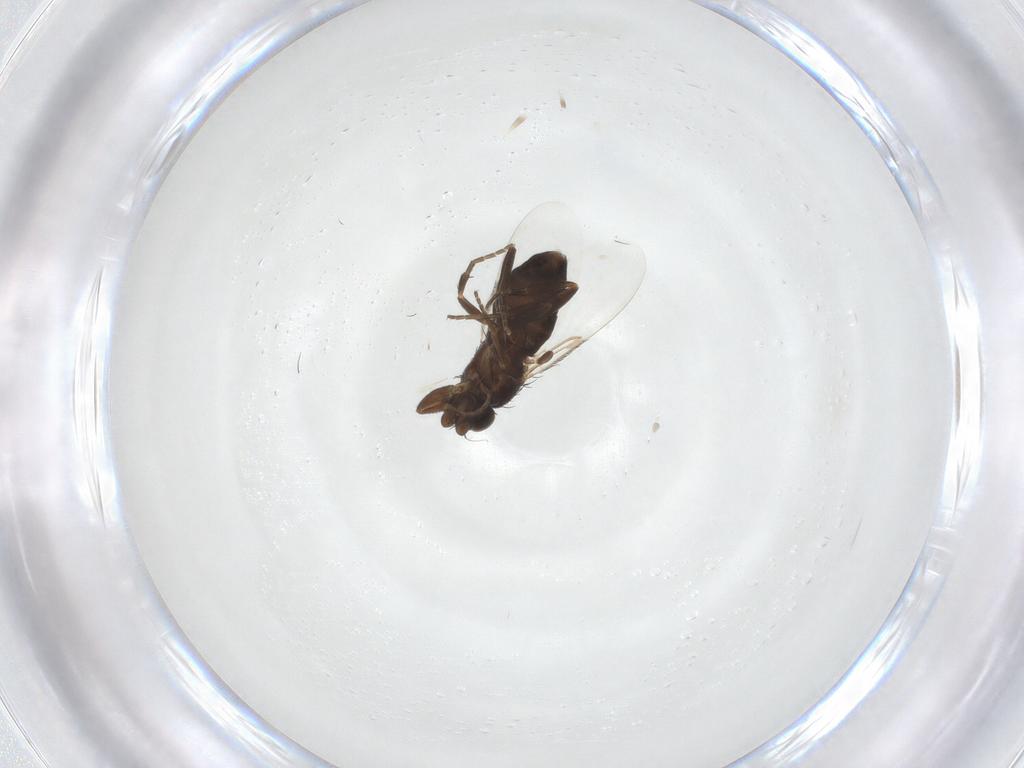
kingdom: Animalia
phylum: Arthropoda
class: Insecta
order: Diptera
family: Phoridae
